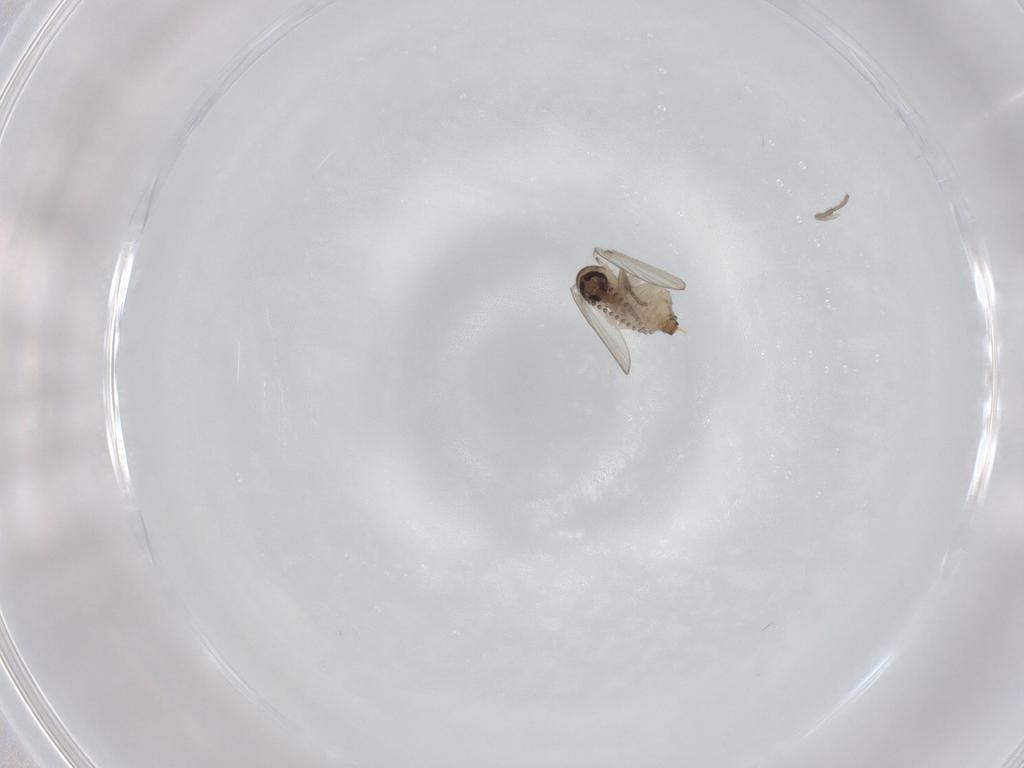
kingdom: Animalia
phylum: Arthropoda
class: Insecta
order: Diptera
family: Psychodidae
